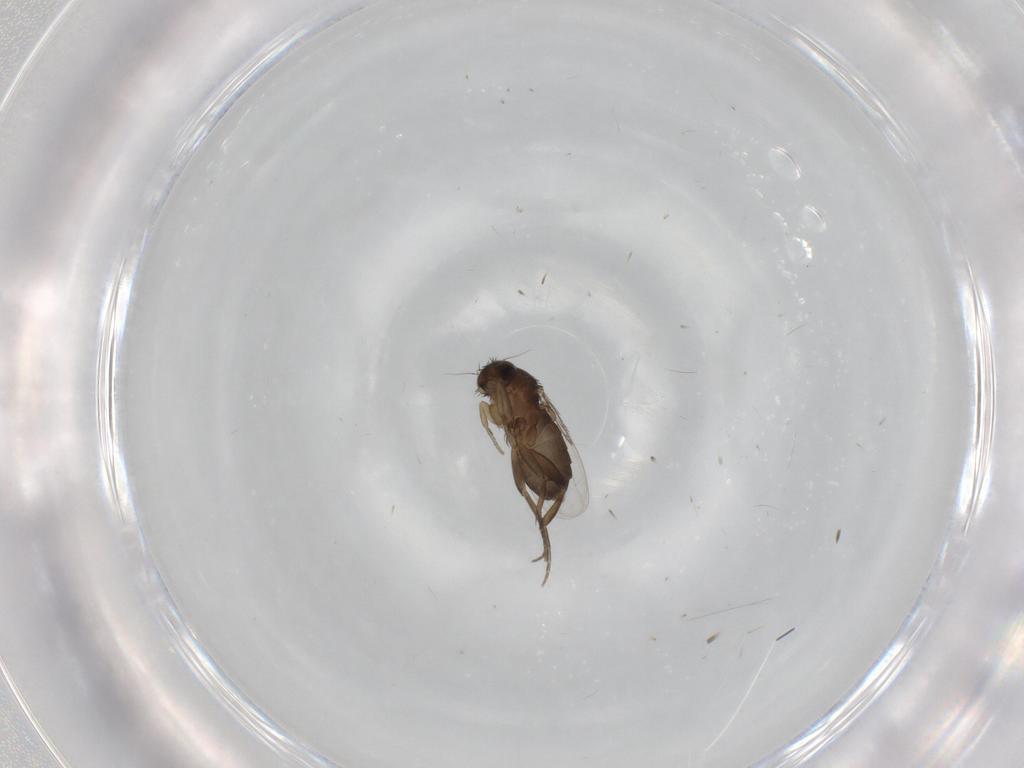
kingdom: Animalia
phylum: Arthropoda
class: Insecta
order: Diptera
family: Phoridae
